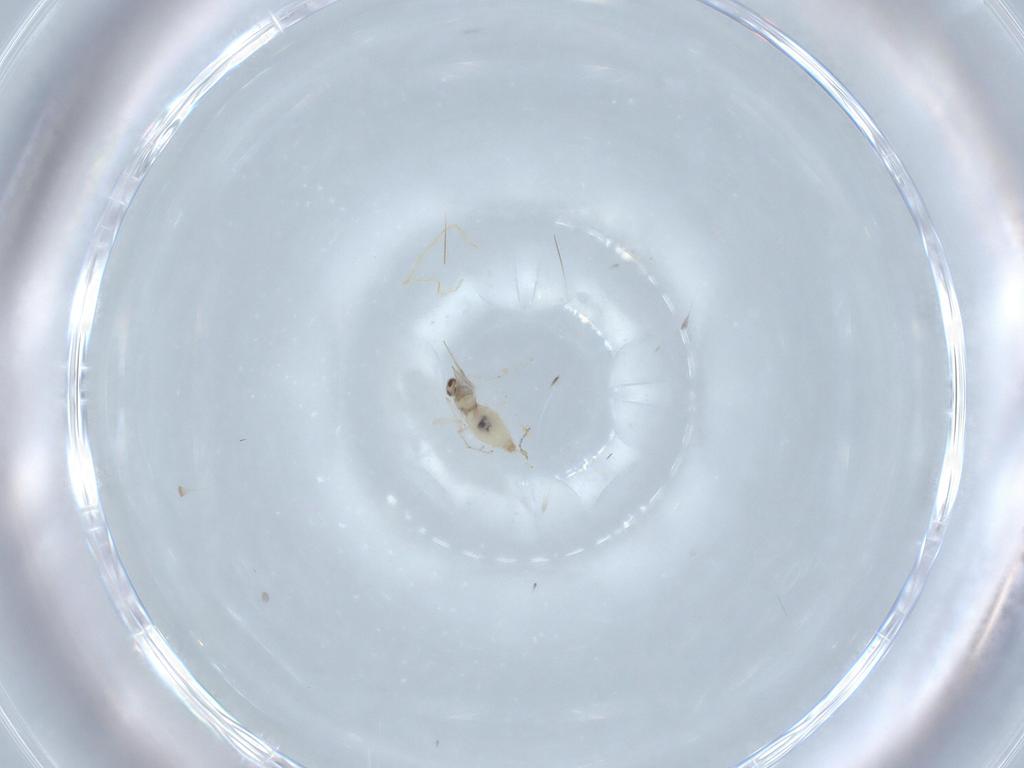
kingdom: Animalia
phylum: Arthropoda
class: Insecta
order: Diptera
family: Cecidomyiidae
